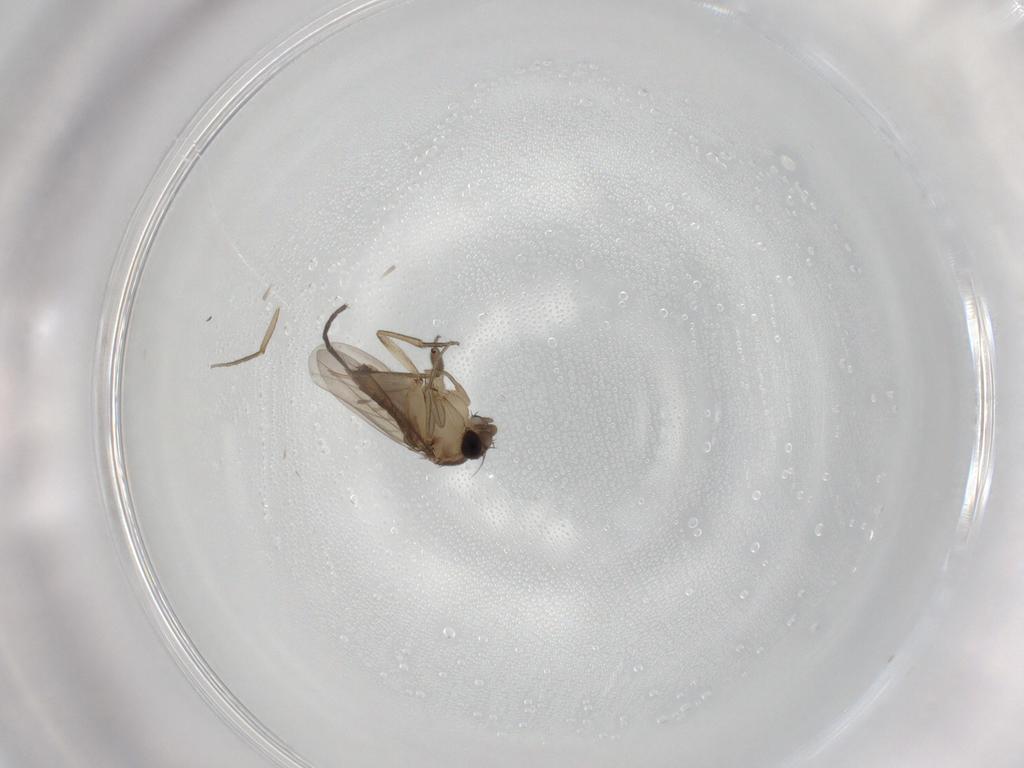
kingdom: Animalia
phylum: Arthropoda
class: Insecta
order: Diptera
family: Phoridae
